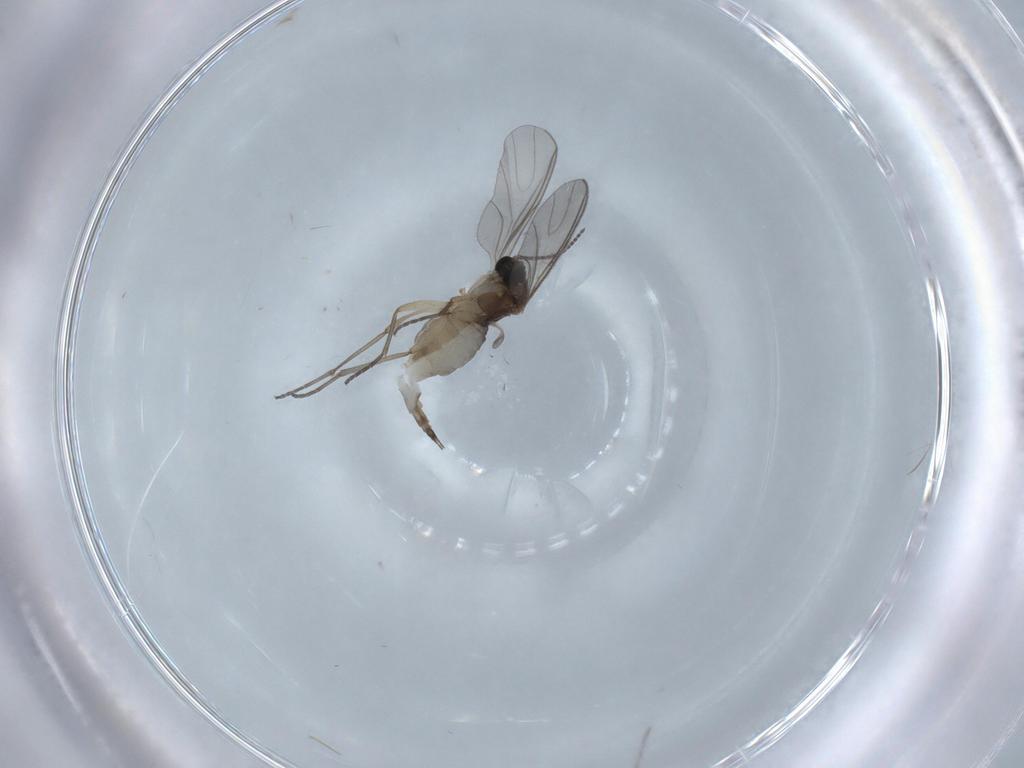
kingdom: Animalia
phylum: Arthropoda
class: Insecta
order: Diptera
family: Sciaridae
